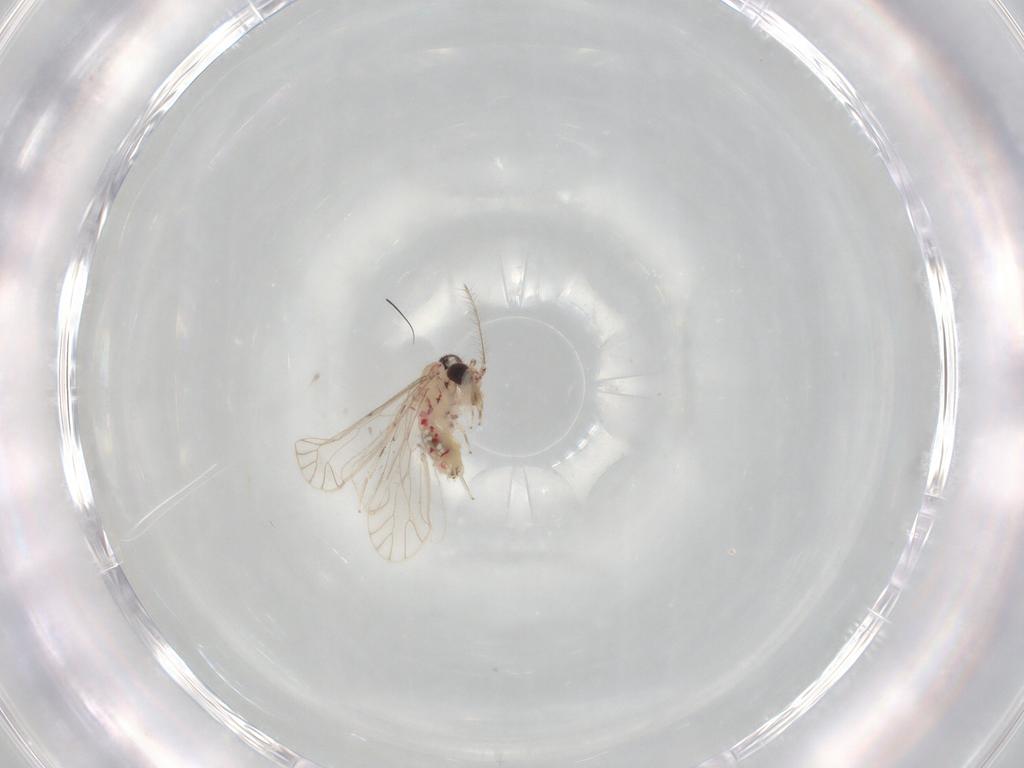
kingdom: Animalia
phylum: Arthropoda
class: Insecta
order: Psocodea
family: Caeciliusidae
